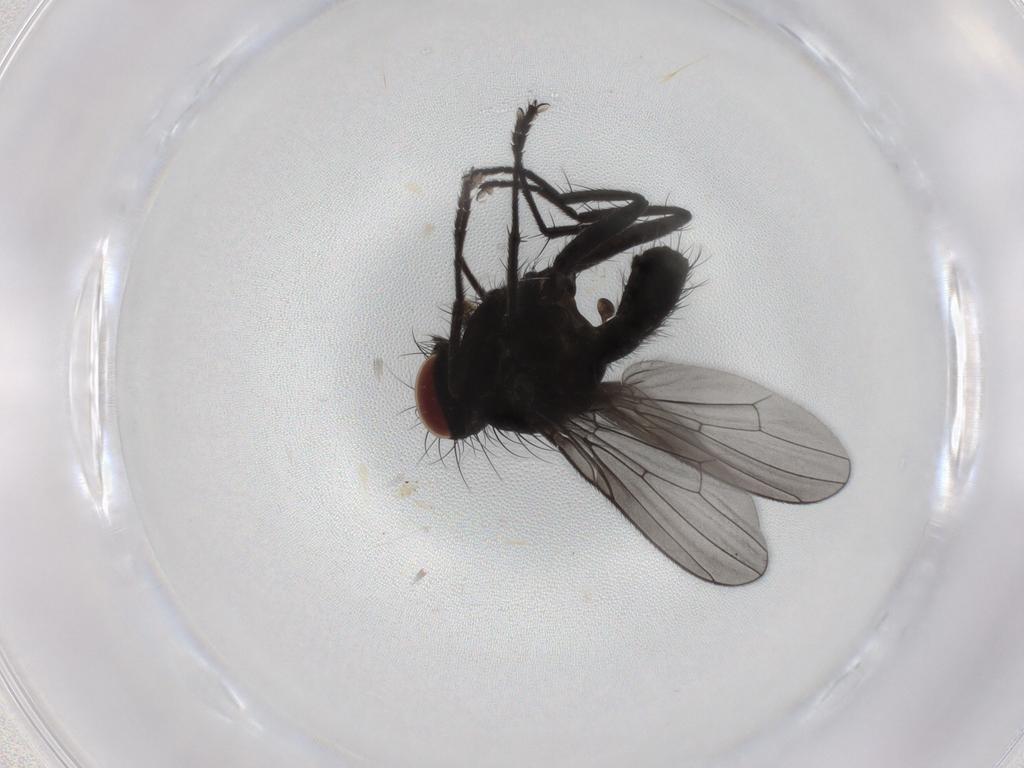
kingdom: Animalia
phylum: Arthropoda
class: Insecta
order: Diptera
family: Muscidae
